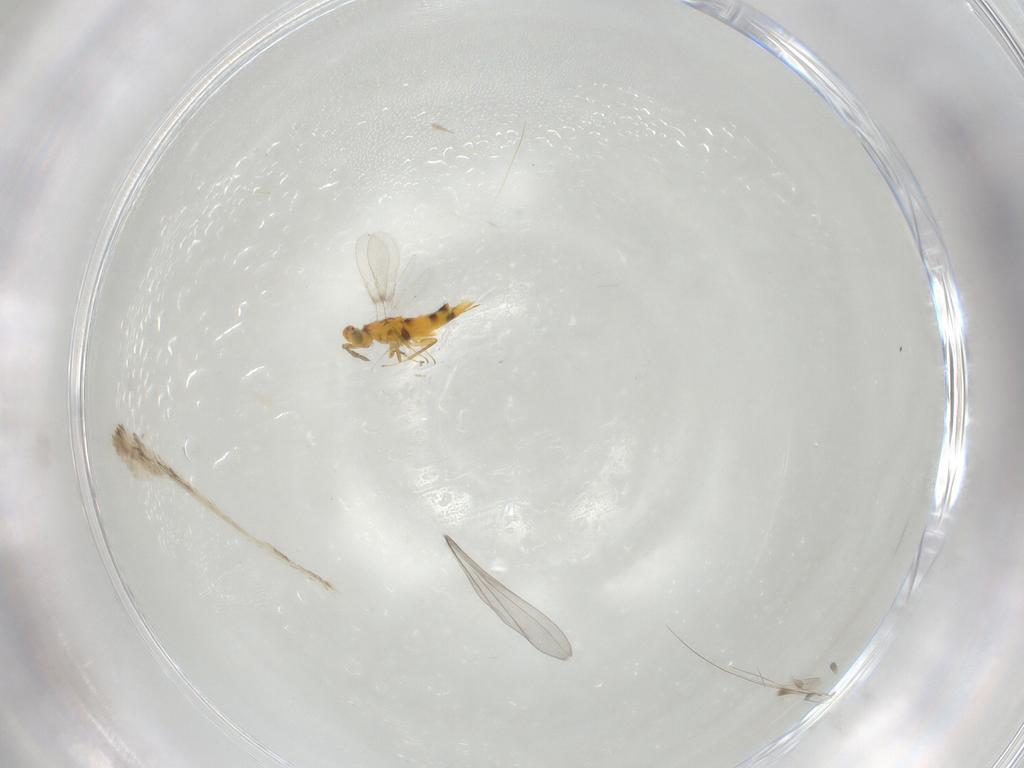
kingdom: Animalia
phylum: Arthropoda
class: Insecta
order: Hymenoptera
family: Aphelinidae
